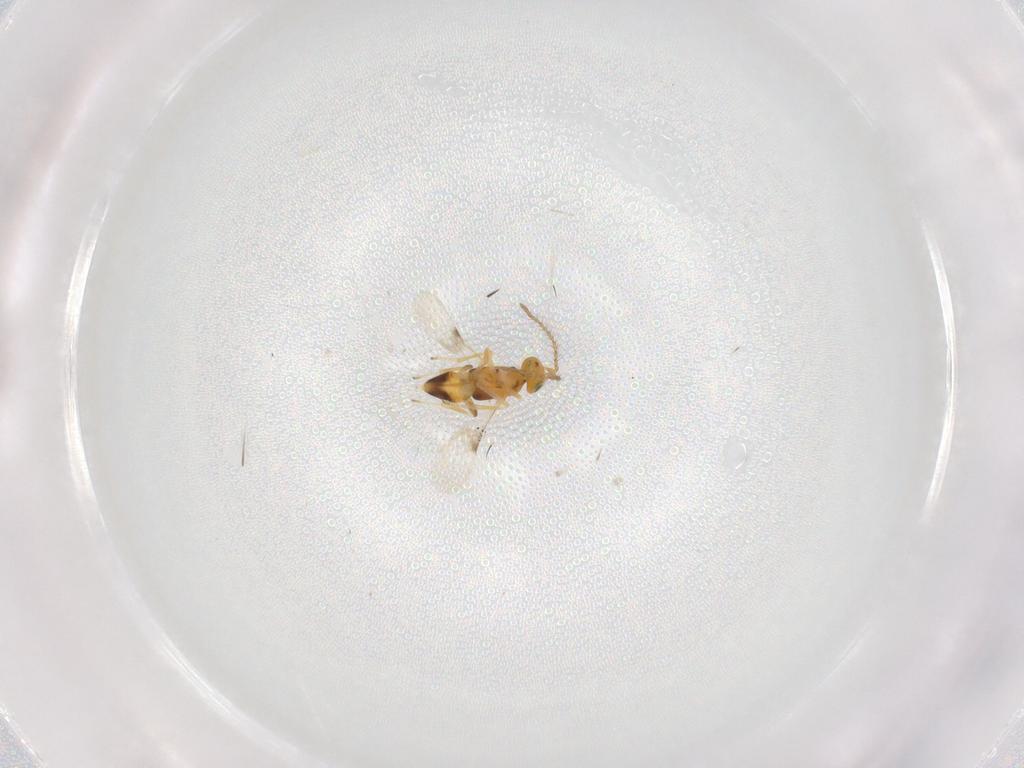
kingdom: Animalia
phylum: Arthropoda
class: Insecta
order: Hymenoptera
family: Encyrtidae
